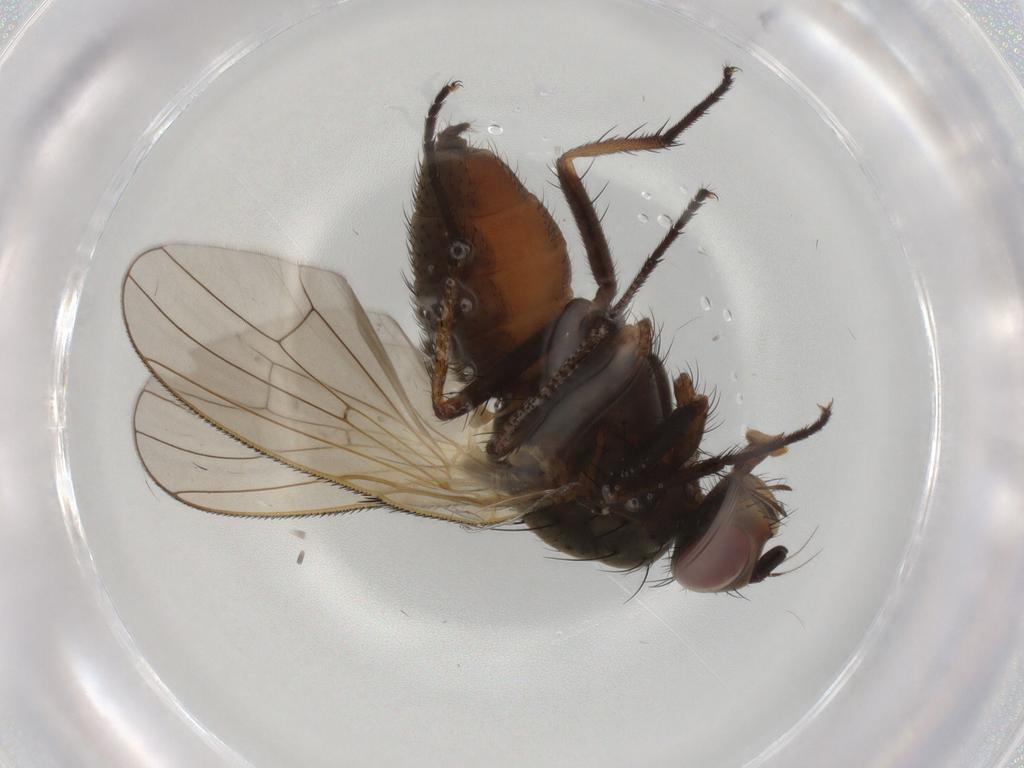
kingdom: Animalia
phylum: Arthropoda
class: Insecta
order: Diptera
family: Anthomyiidae
